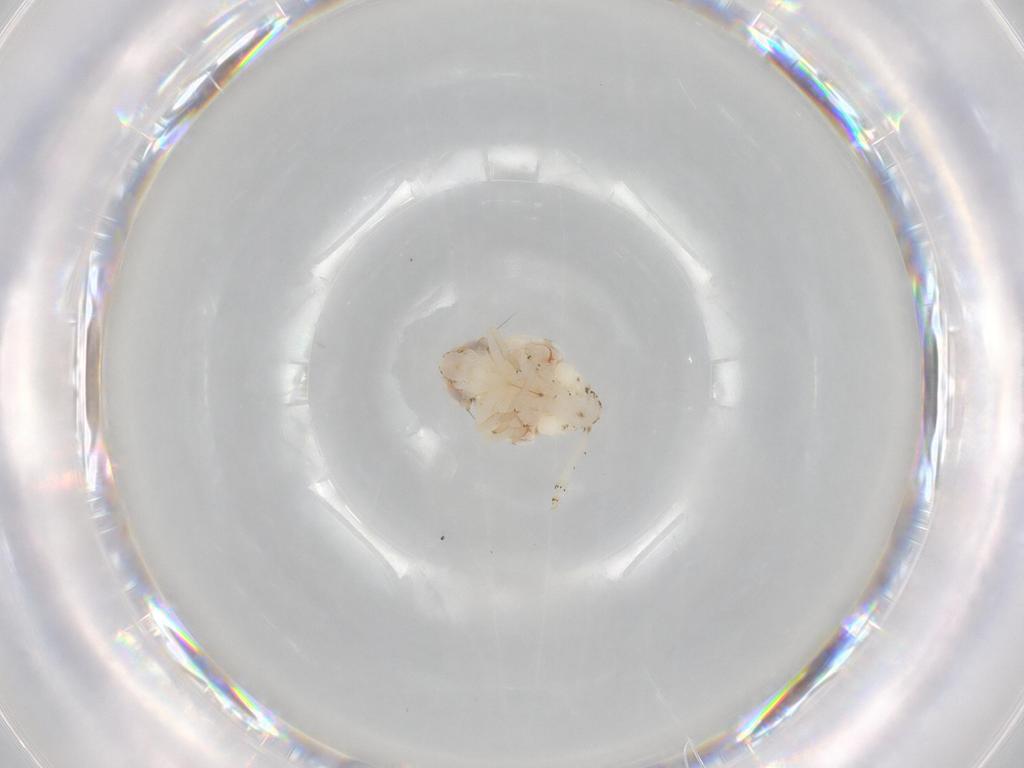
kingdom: Animalia
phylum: Arthropoda
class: Insecta
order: Hemiptera
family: Nogodinidae
